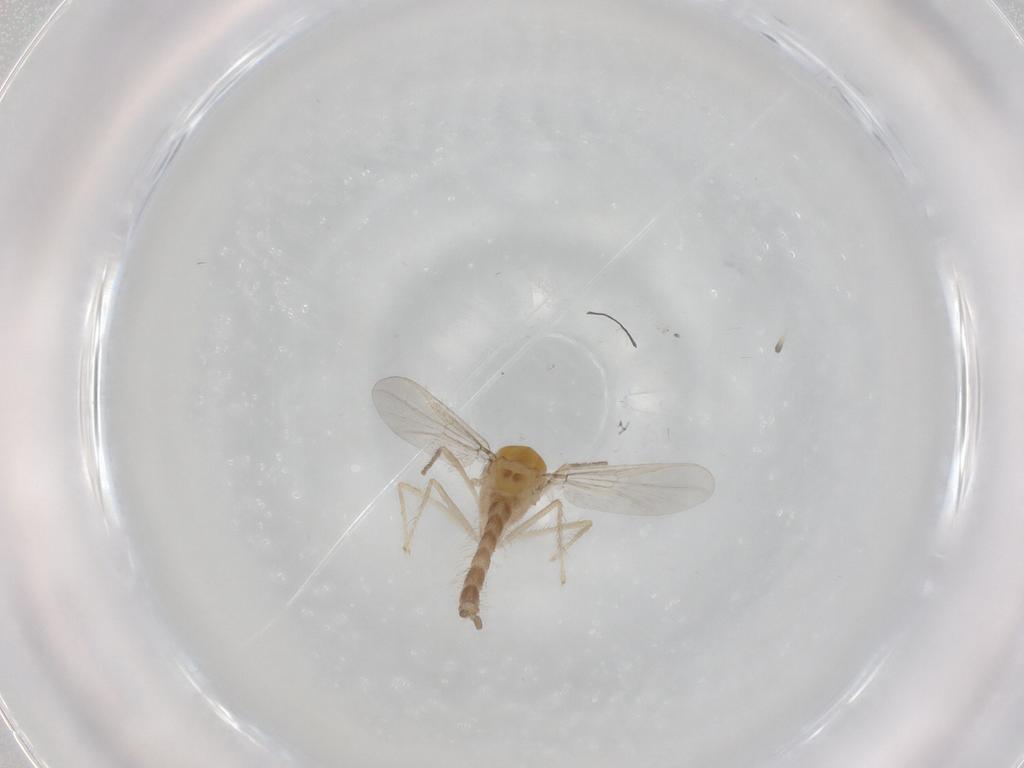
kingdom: Animalia
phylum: Arthropoda
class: Insecta
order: Diptera
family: Chironomidae
